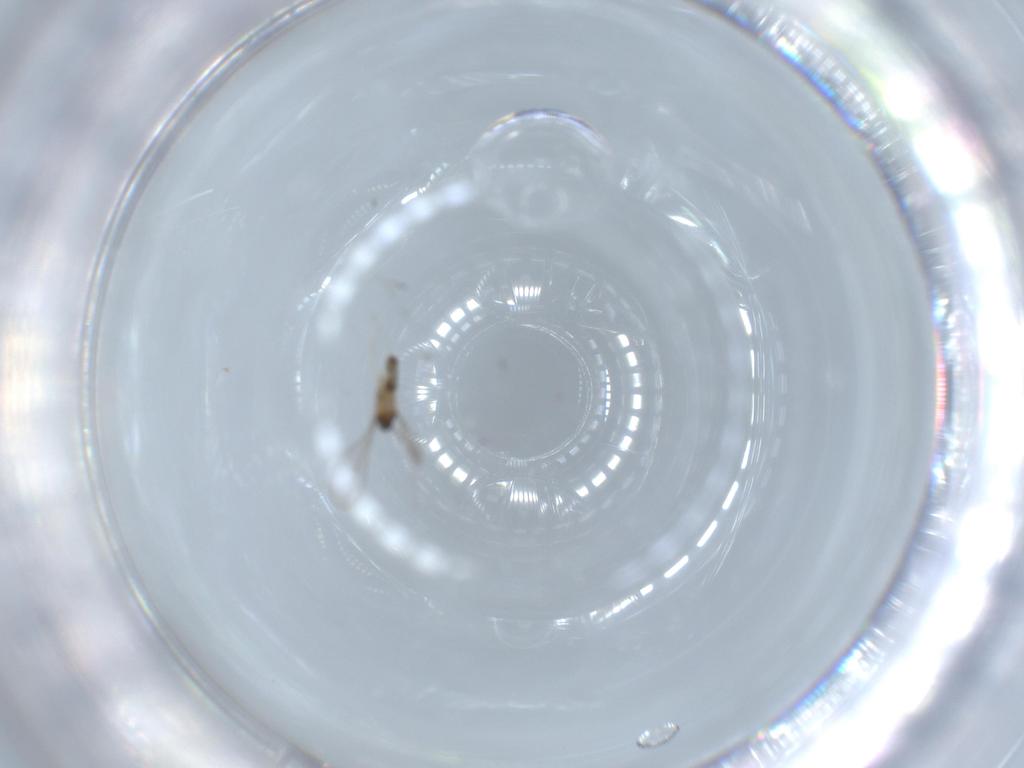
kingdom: Animalia
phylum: Arthropoda
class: Insecta
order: Diptera
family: Cecidomyiidae
